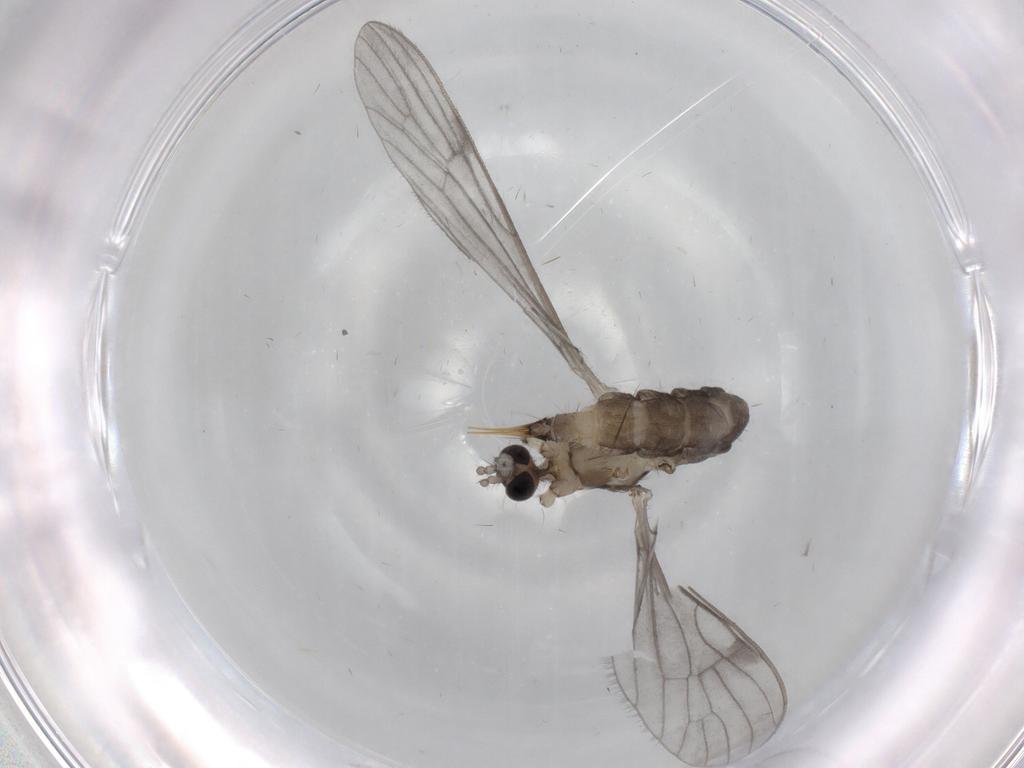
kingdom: Animalia
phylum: Arthropoda
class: Insecta
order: Diptera
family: Limoniidae
